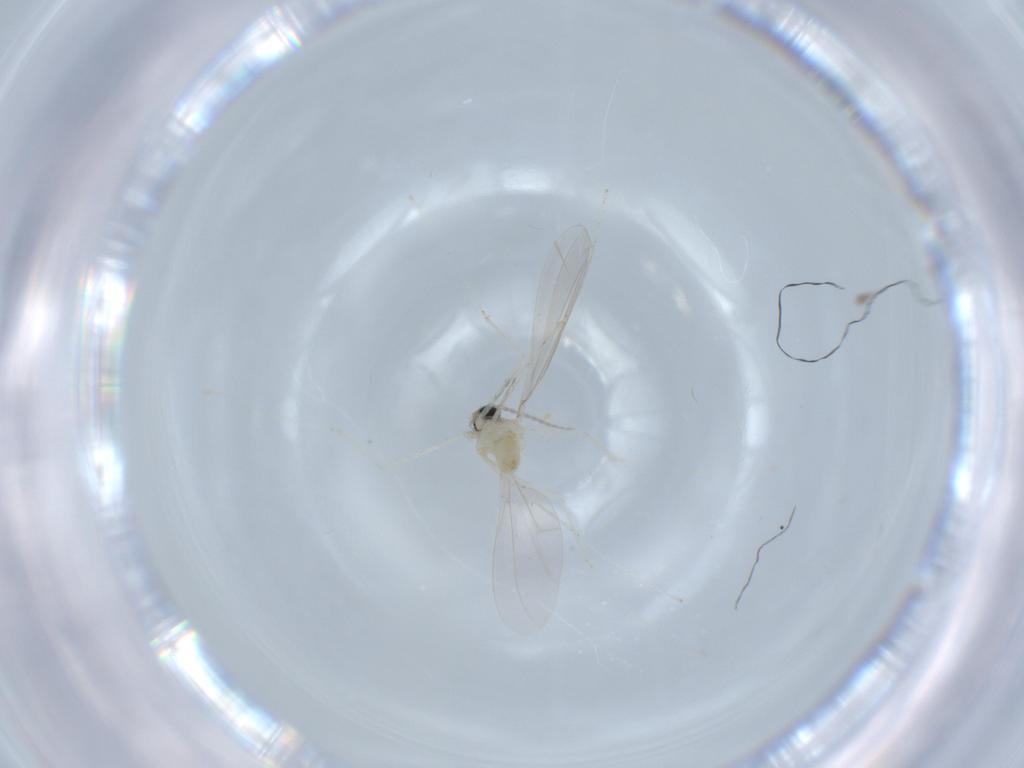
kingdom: Animalia
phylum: Arthropoda
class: Insecta
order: Diptera
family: Cecidomyiidae
